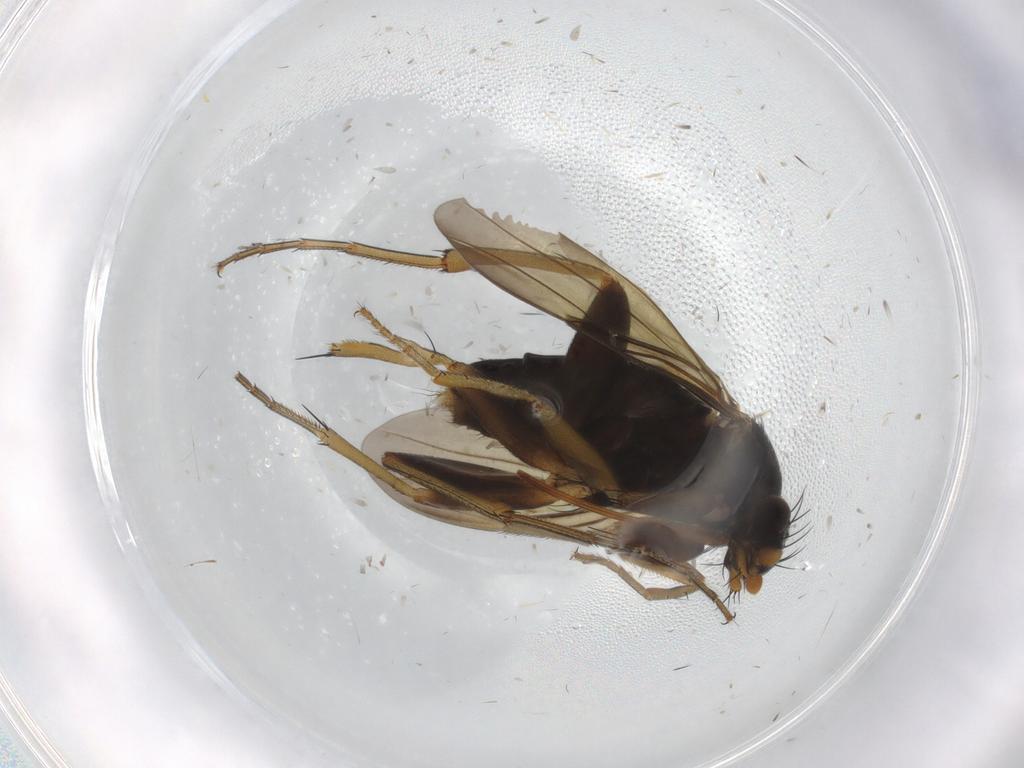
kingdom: Animalia
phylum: Arthropoda
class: Insecta
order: Diptera
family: Phoridae
